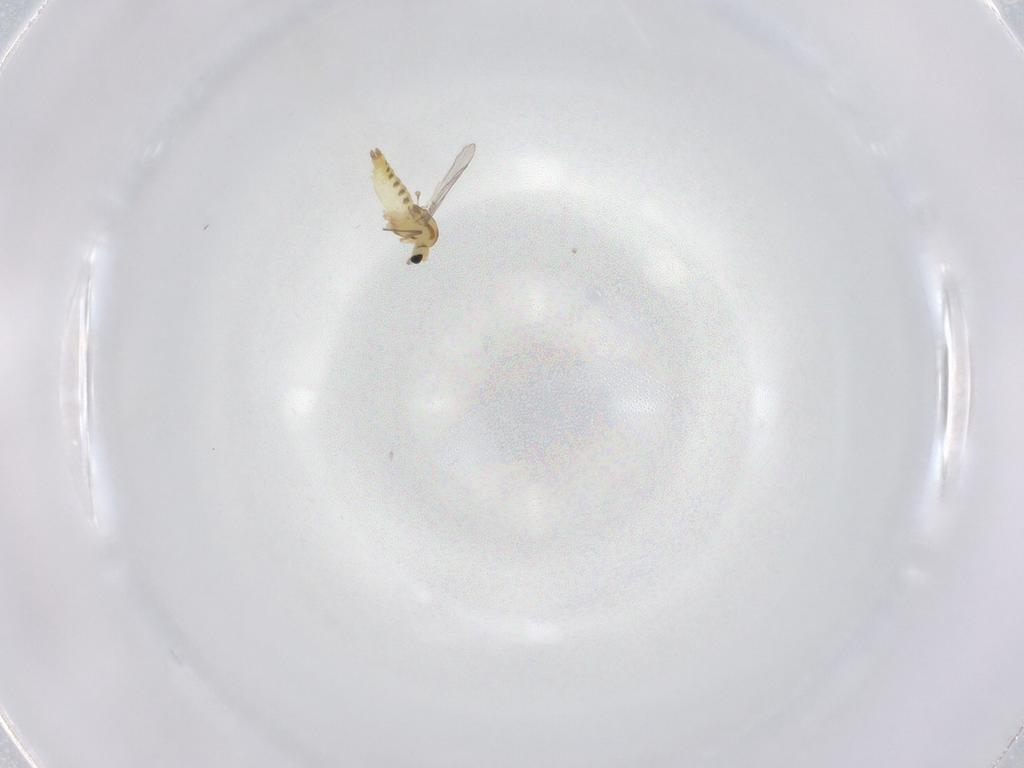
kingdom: Animalia
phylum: Arthropoda
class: Insecta
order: Diptera
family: Chironomidae
